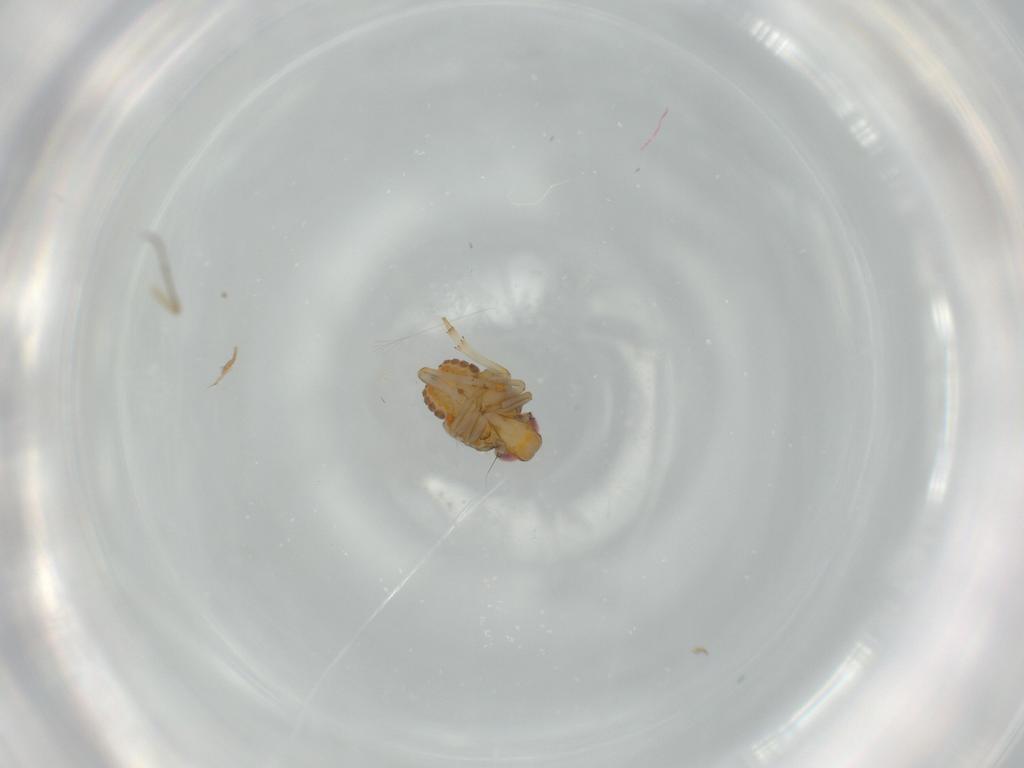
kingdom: Animalia
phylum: Arthropoda
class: Insecta
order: Hemiptera
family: Issidae
